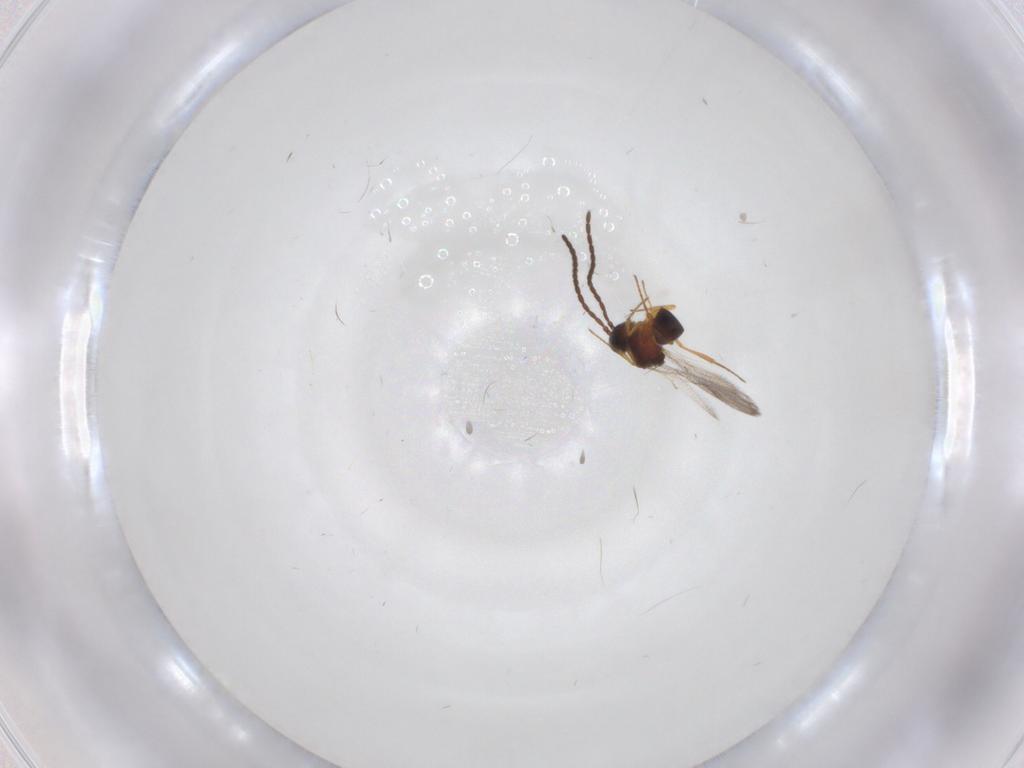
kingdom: Animalia
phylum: Arthropoda
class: Insecta
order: Hymenoptera
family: Figitidae
